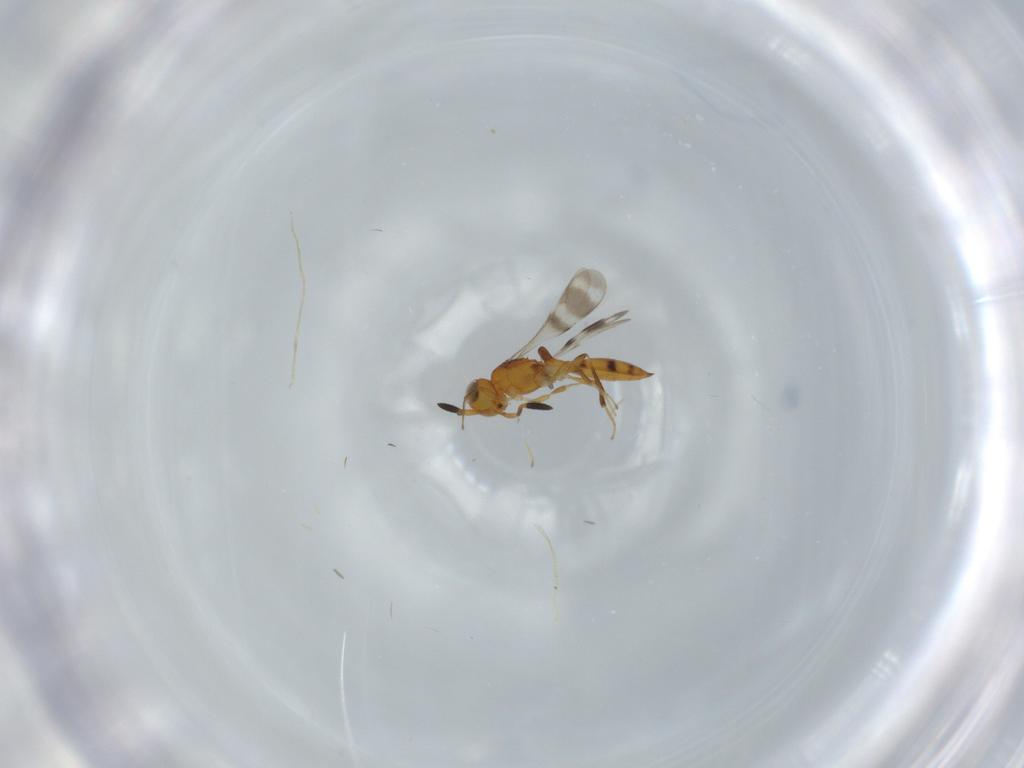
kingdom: Animalia
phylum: Arthropoda
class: Insecta
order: Hymenoptera
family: Scelionidae
